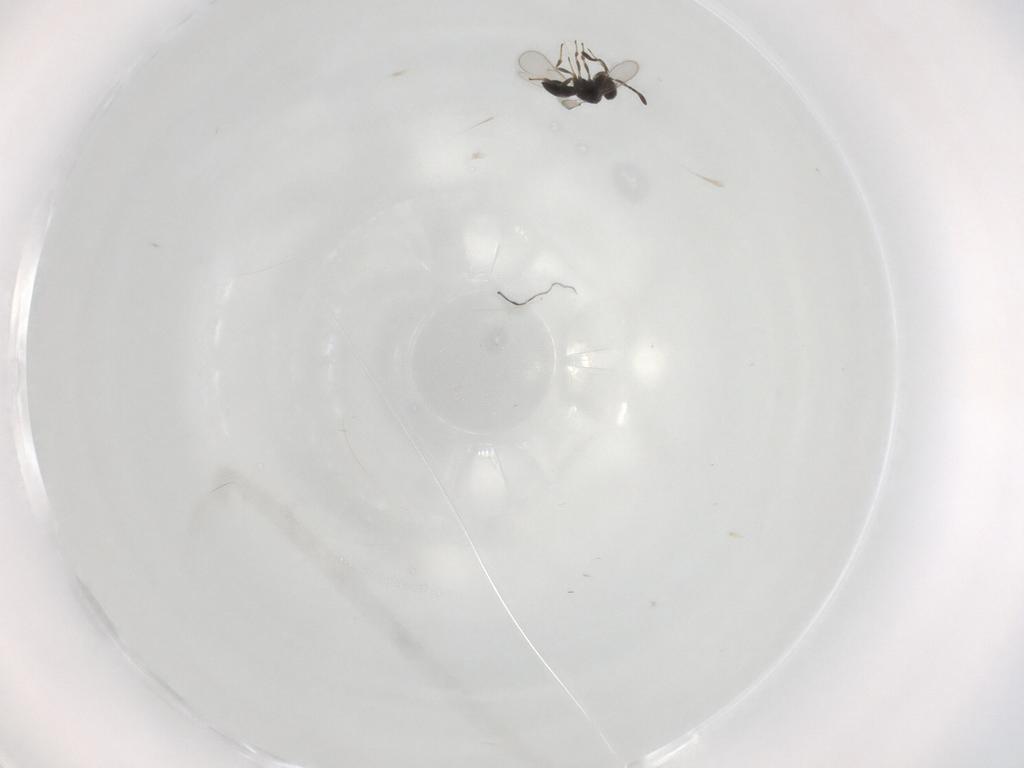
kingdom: Animalia
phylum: Arthropoda
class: Insecta
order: Hymenoptera
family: Scelionidae
